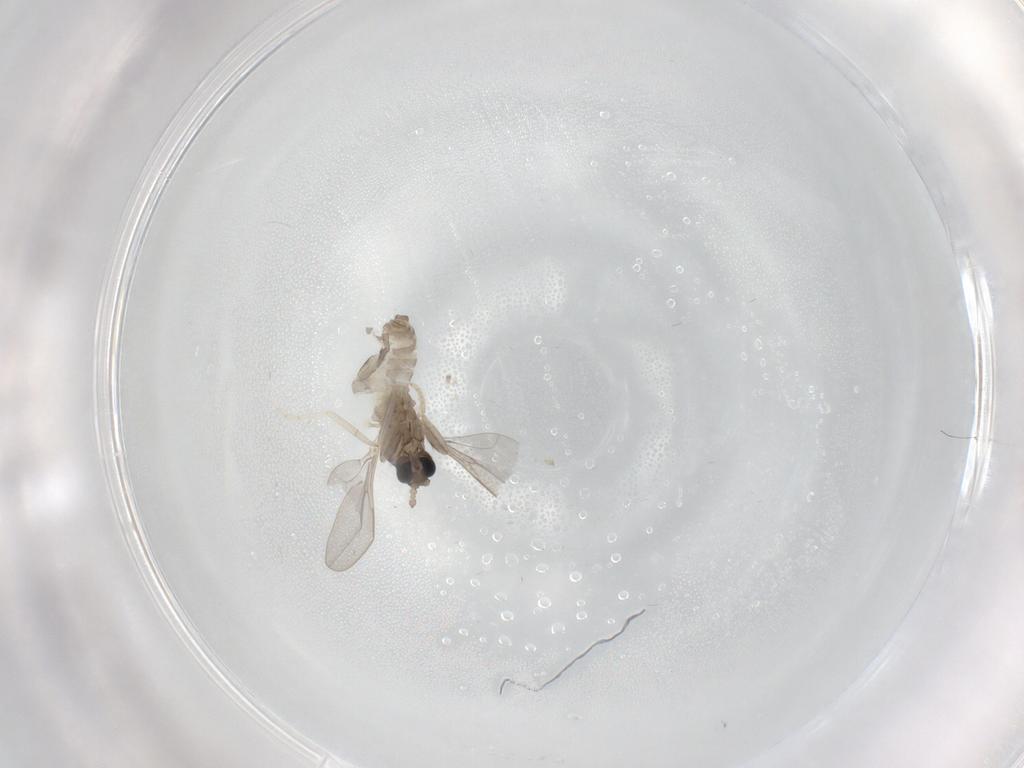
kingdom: Animalia
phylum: Arthropoda
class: Insecta
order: Diptera
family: Cecidomyiidae
